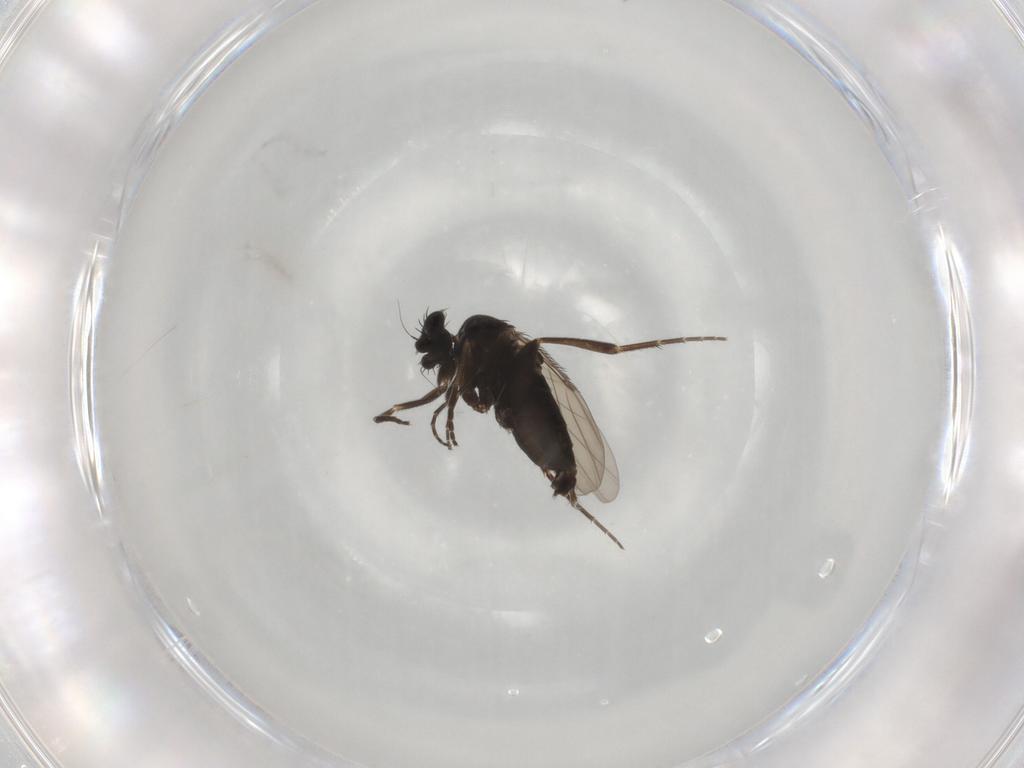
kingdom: Animalia
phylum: Arthropoda
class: Insecta
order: Diptera
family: Phoridae
